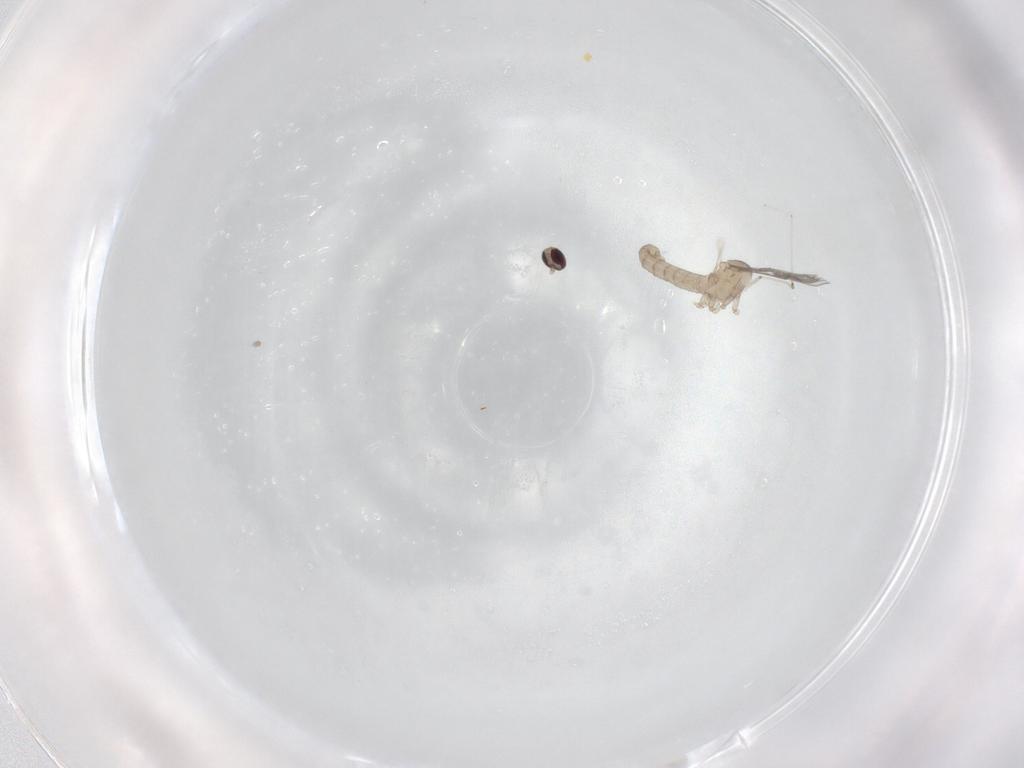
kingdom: Animalia
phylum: Arthropoda
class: Insecta
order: Diptera
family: Cecidomyiidae
